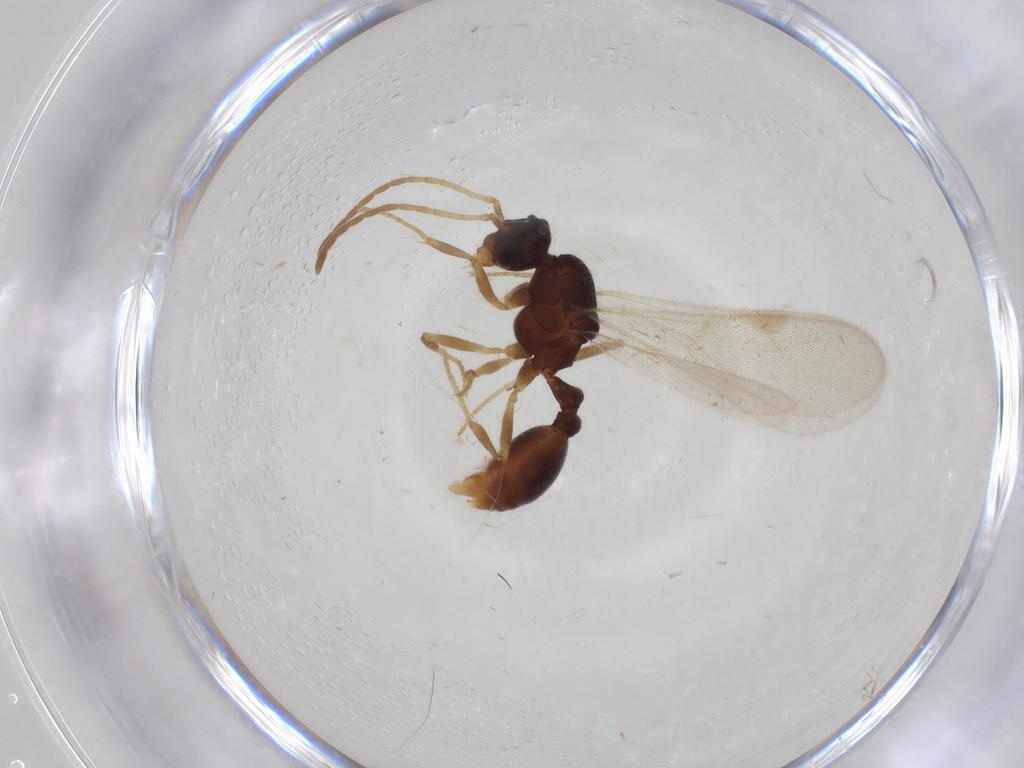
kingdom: Animalia
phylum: Arthropoda
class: Insecta
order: Hymenoptera
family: Formicidae
